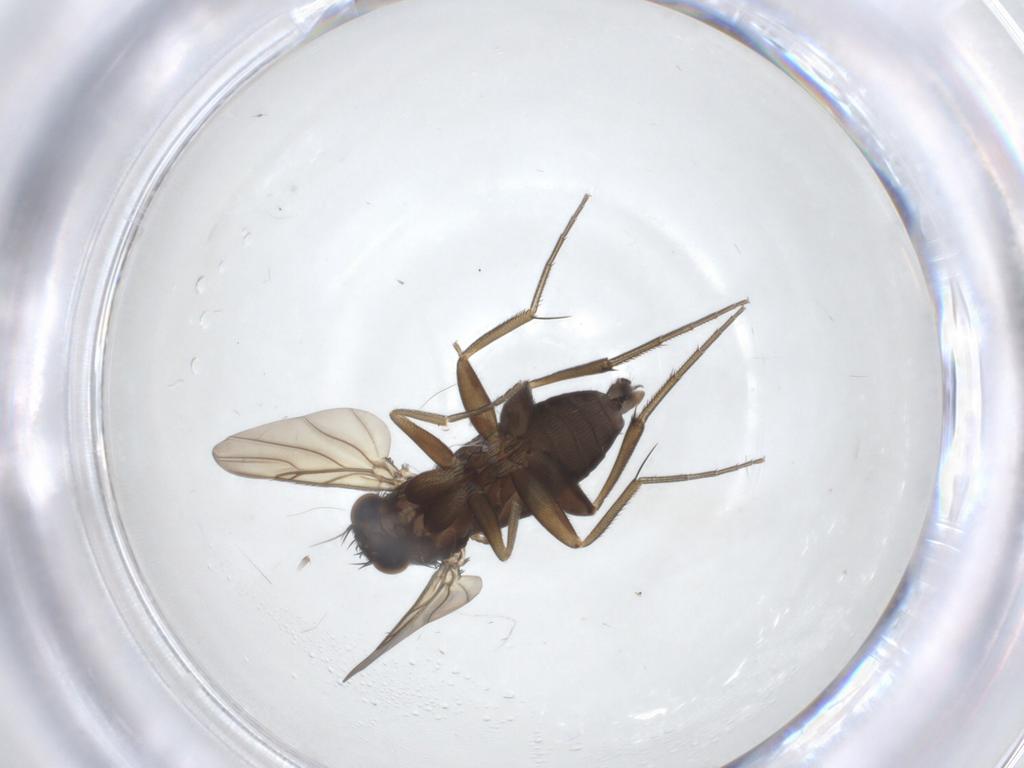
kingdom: Animalia
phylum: Arthropoda
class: Insecta
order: Diptera
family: Phoridae
